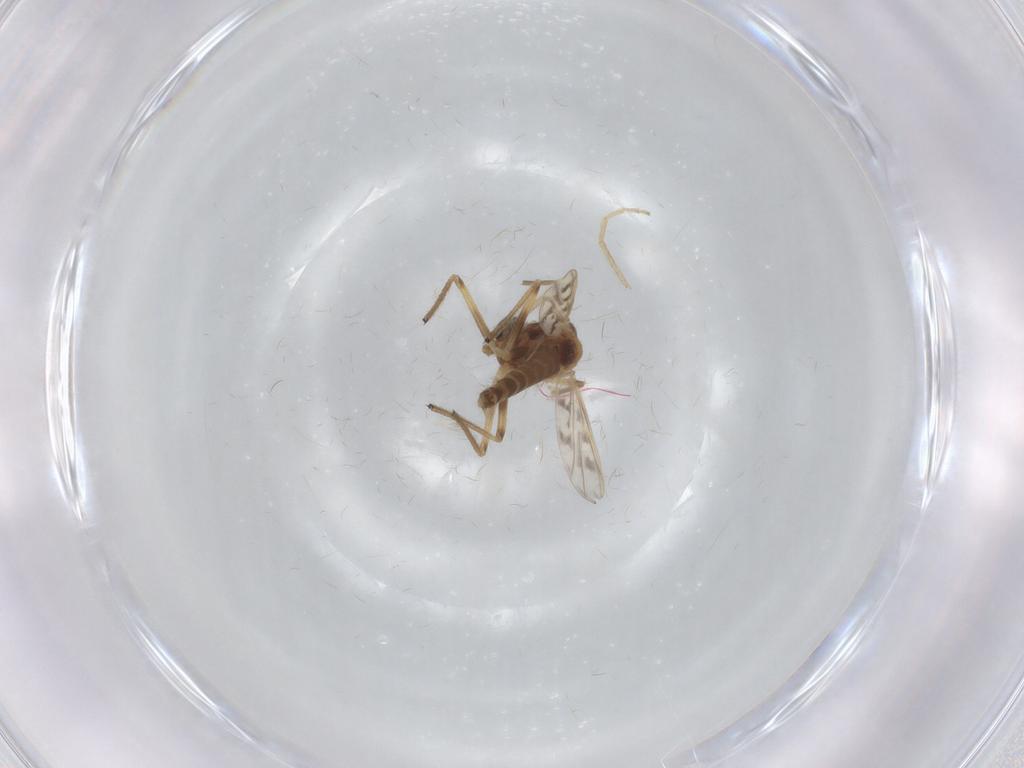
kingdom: Animalia
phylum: Arthropoda
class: Insecta
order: Diptera
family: Chironomidae
